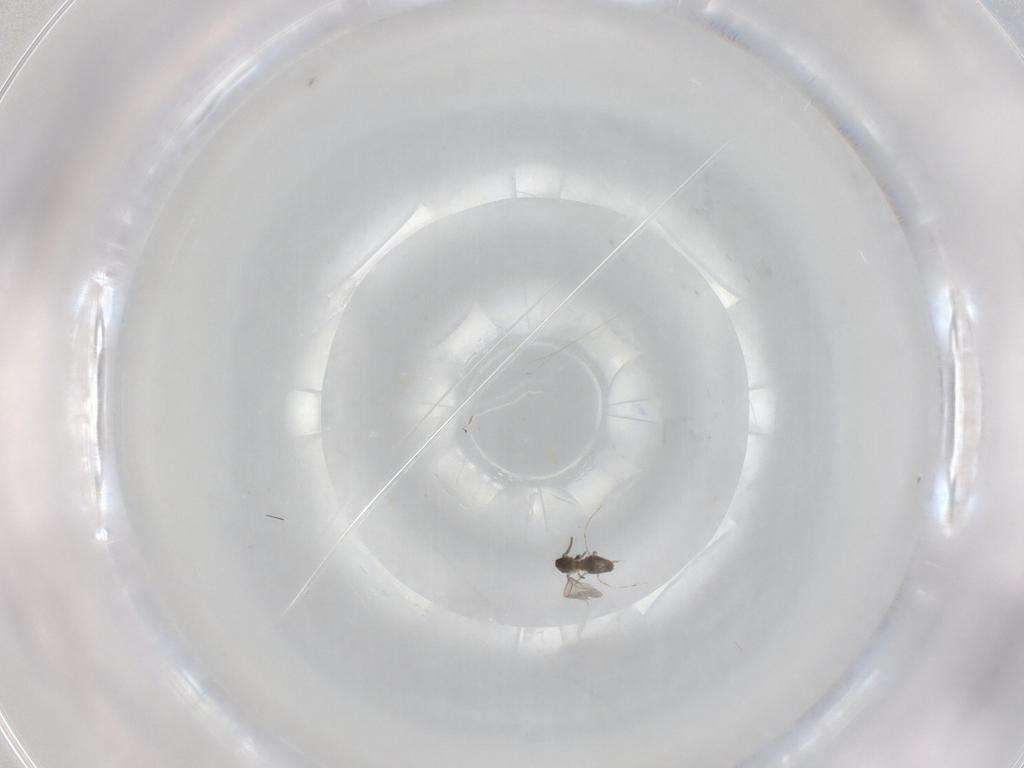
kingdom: Animalia
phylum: Arthropoda
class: Insecta
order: Diptera
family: Cecidomyiidae
